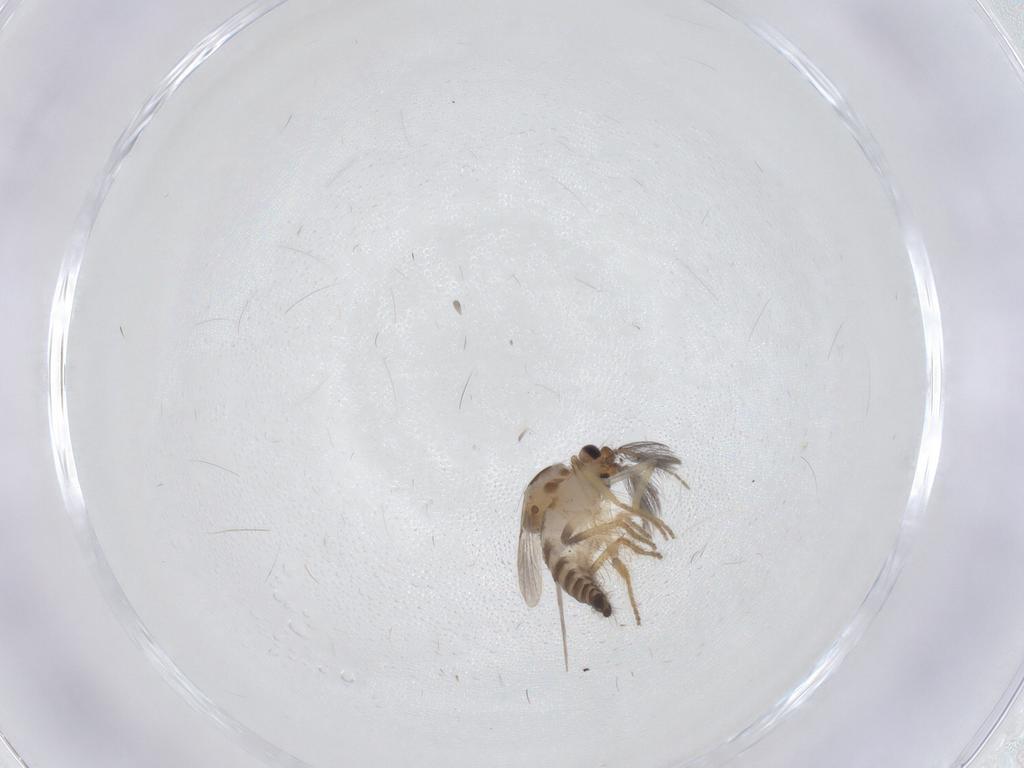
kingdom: Animalia
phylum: Arthropoda
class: Insecta
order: Diptera
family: Ceratopogonidae
